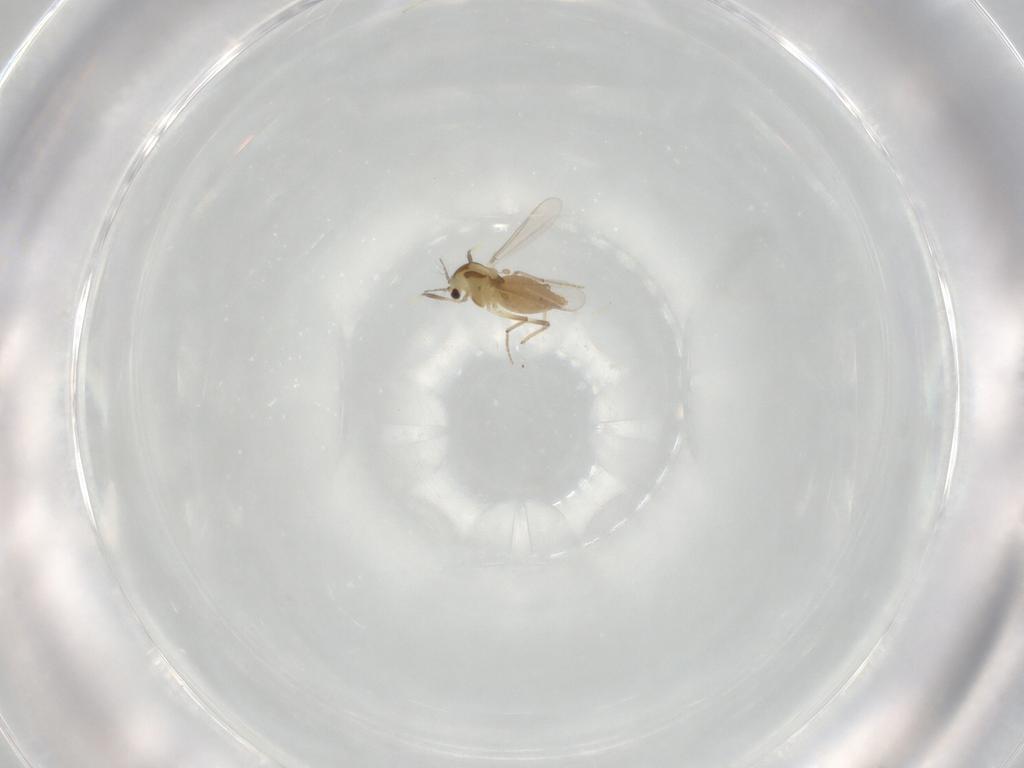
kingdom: Animalia
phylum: Arthropoda
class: Insecta
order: Diptera
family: Chironomidae
